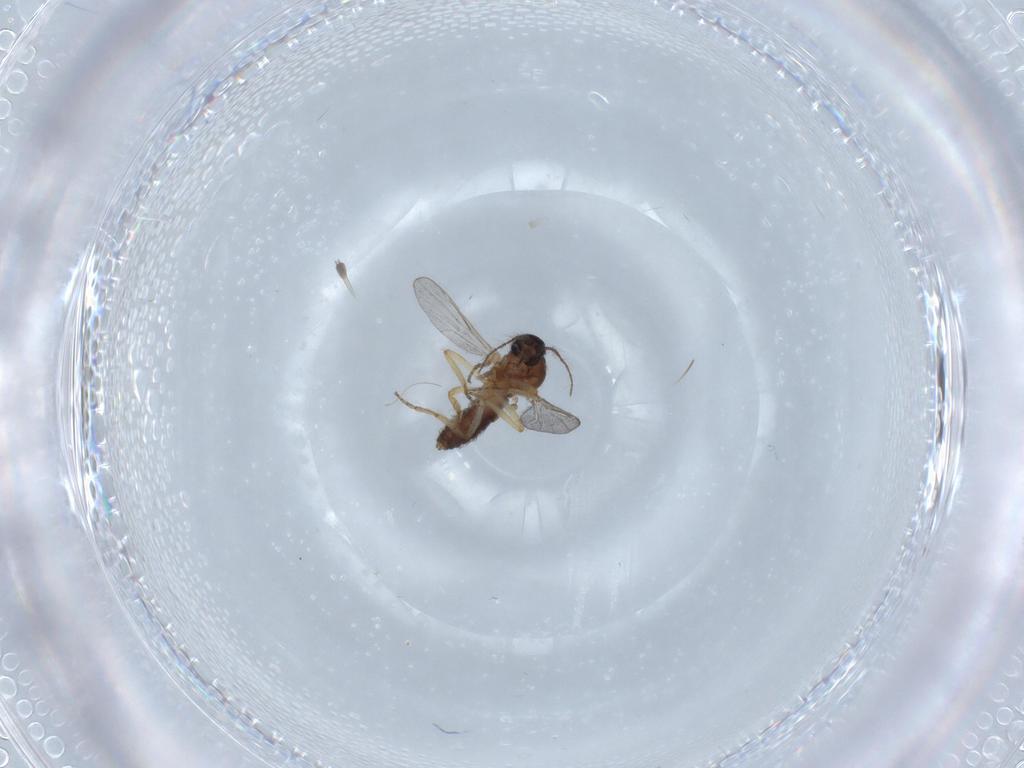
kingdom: Animalia
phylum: Arthropoda
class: Insecta
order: Diptera
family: Ceratopogonidae
